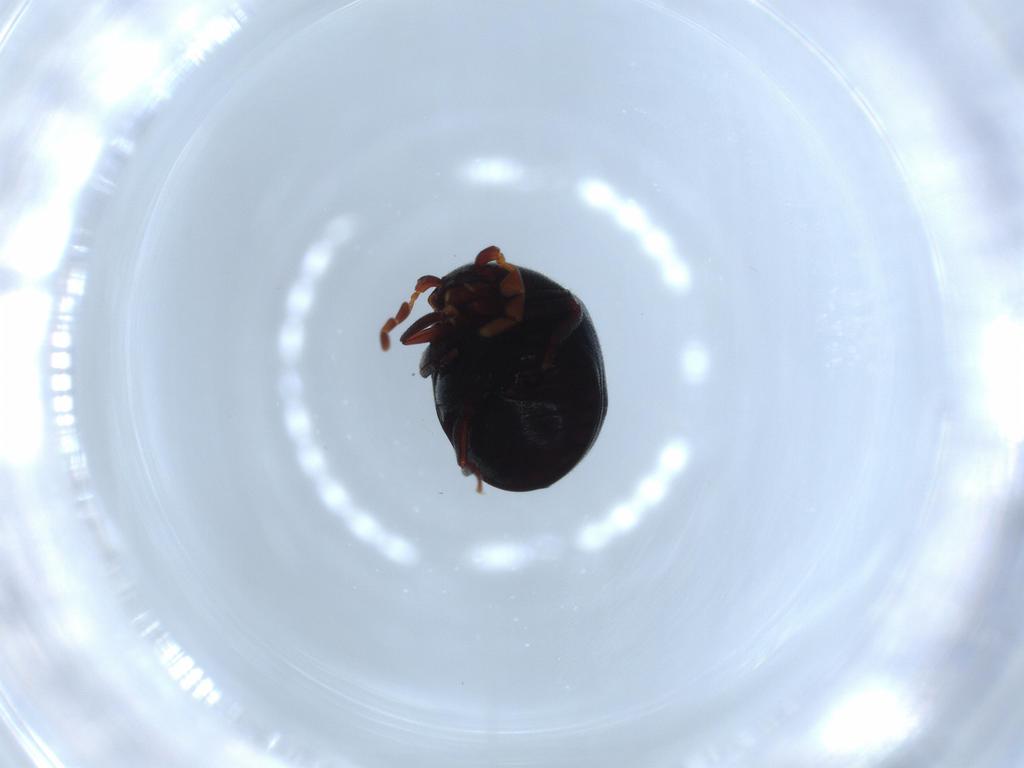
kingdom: Animalia
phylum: Arthropoda
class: Insecta
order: Coleoptera
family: Ptinidae
